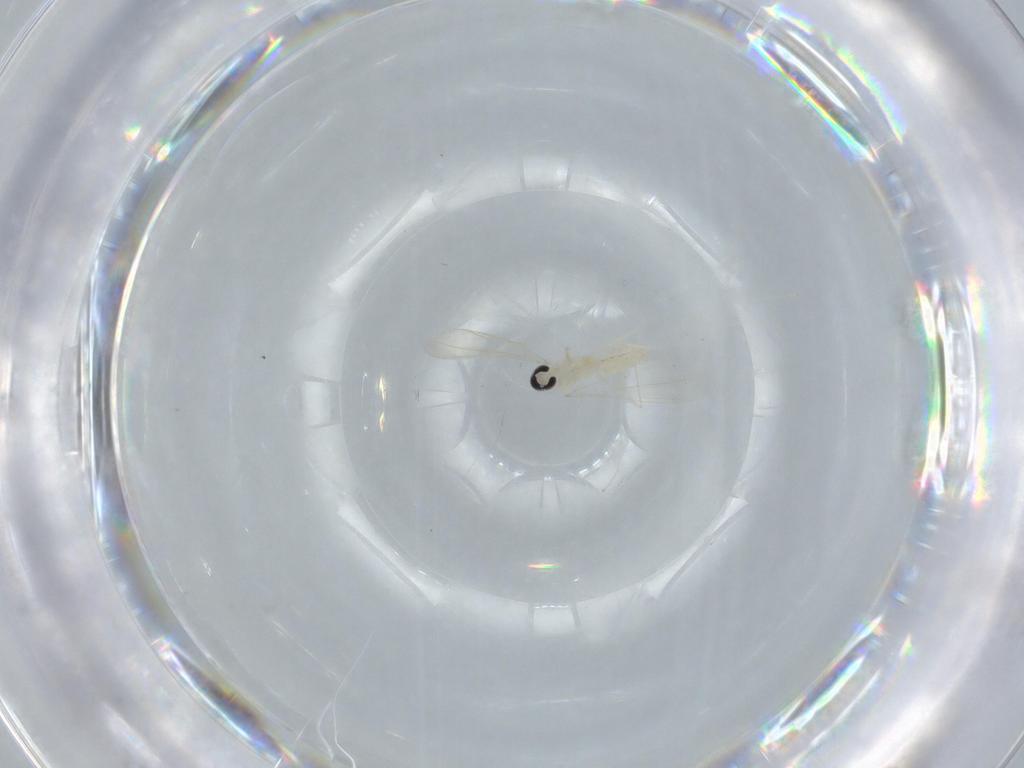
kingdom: Animalia
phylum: Arthropoda
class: Insecta
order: Diptera
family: Cecidomyiidae
